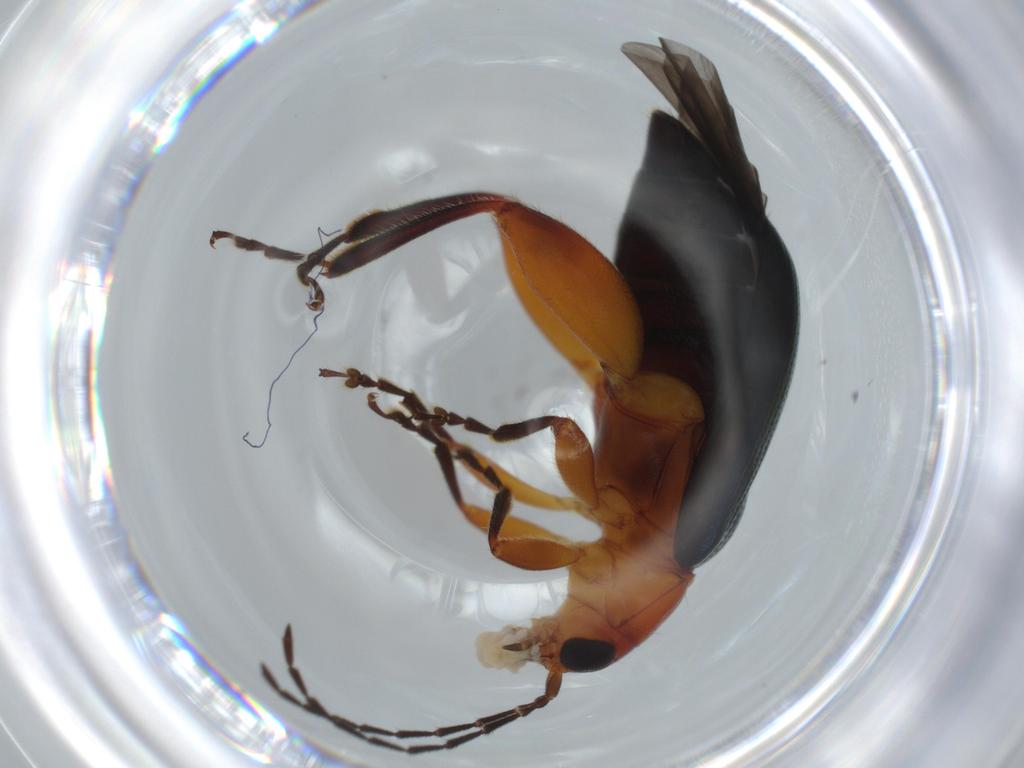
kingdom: Animalia
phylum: Arthropoda
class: Insecta
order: Coleoptera
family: Chrysomelidae
